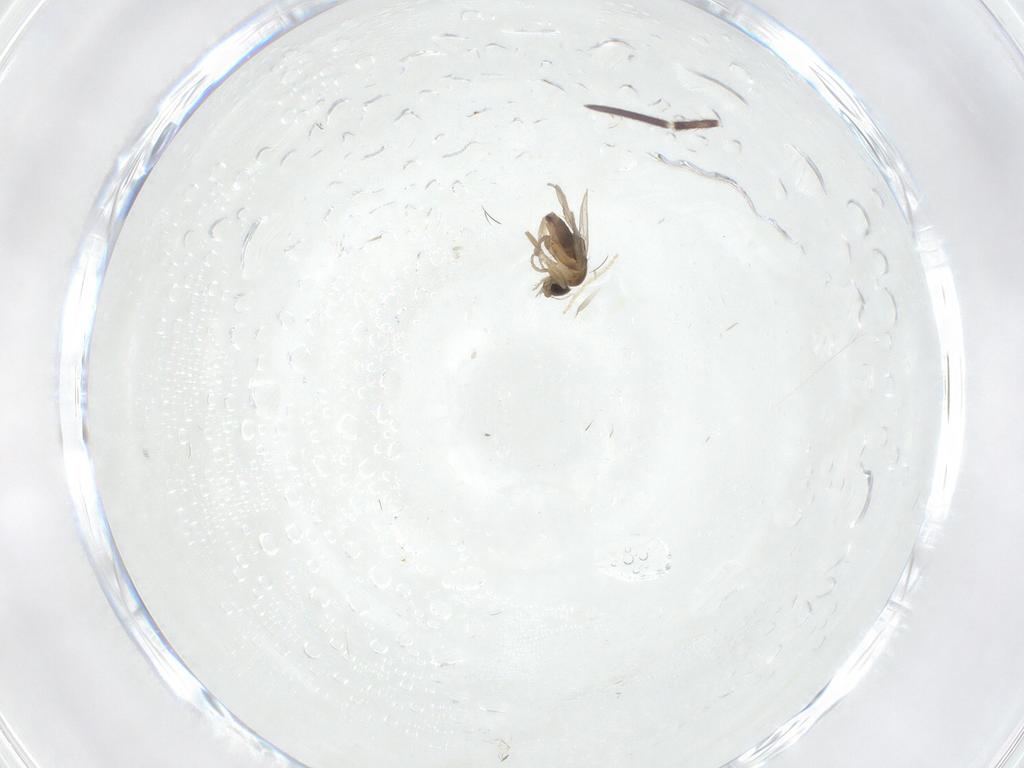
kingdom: Animalia
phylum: Arthropoda
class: Insecta
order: Diptera
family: Chironomidae
